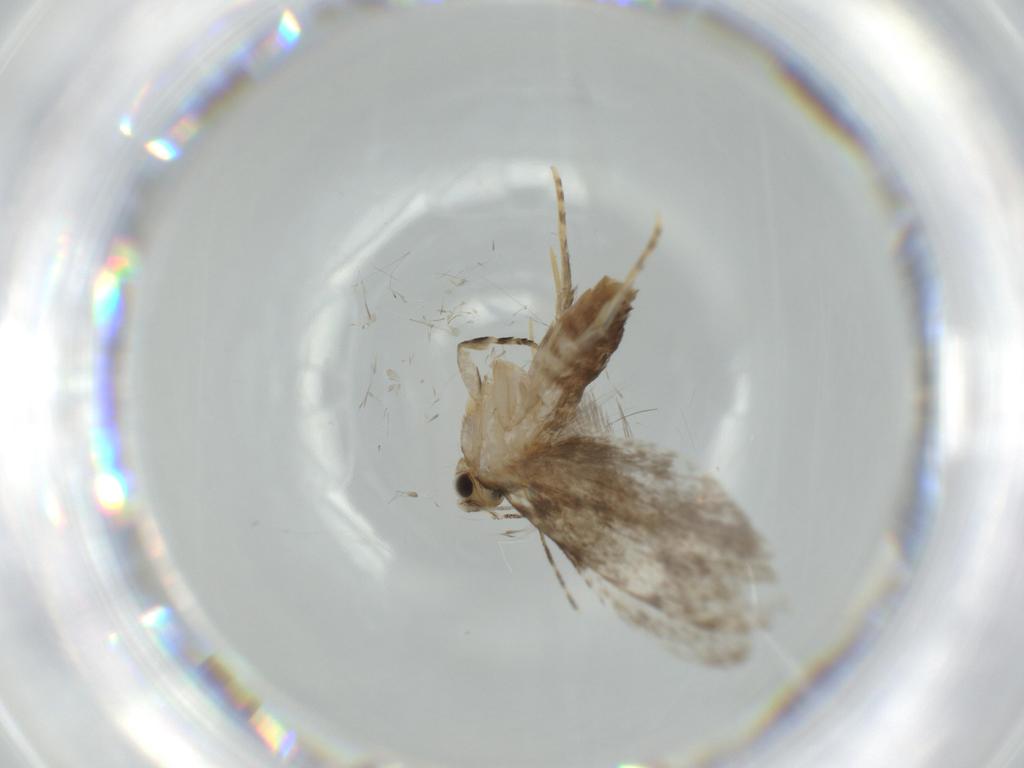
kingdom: Animalia
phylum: Arthropoda
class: Insecta
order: Lepidoptera
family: Tineidae
